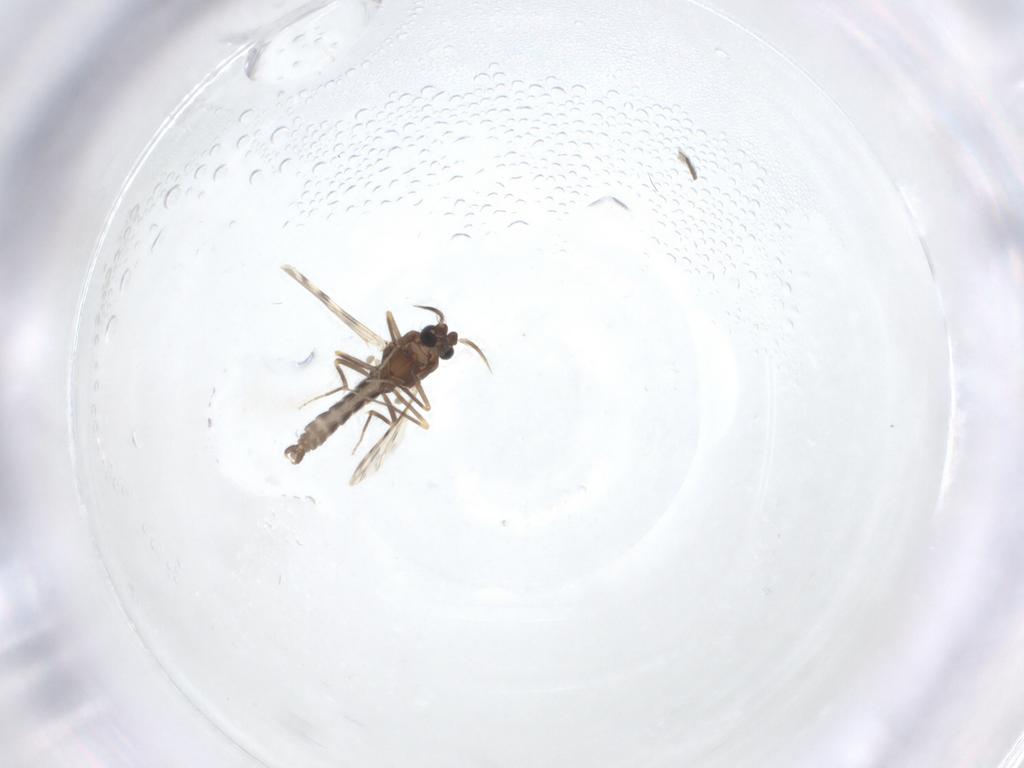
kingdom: Animalia
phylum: Arthropoda
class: Insecta
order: Diptera
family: Ceratopogonidae
